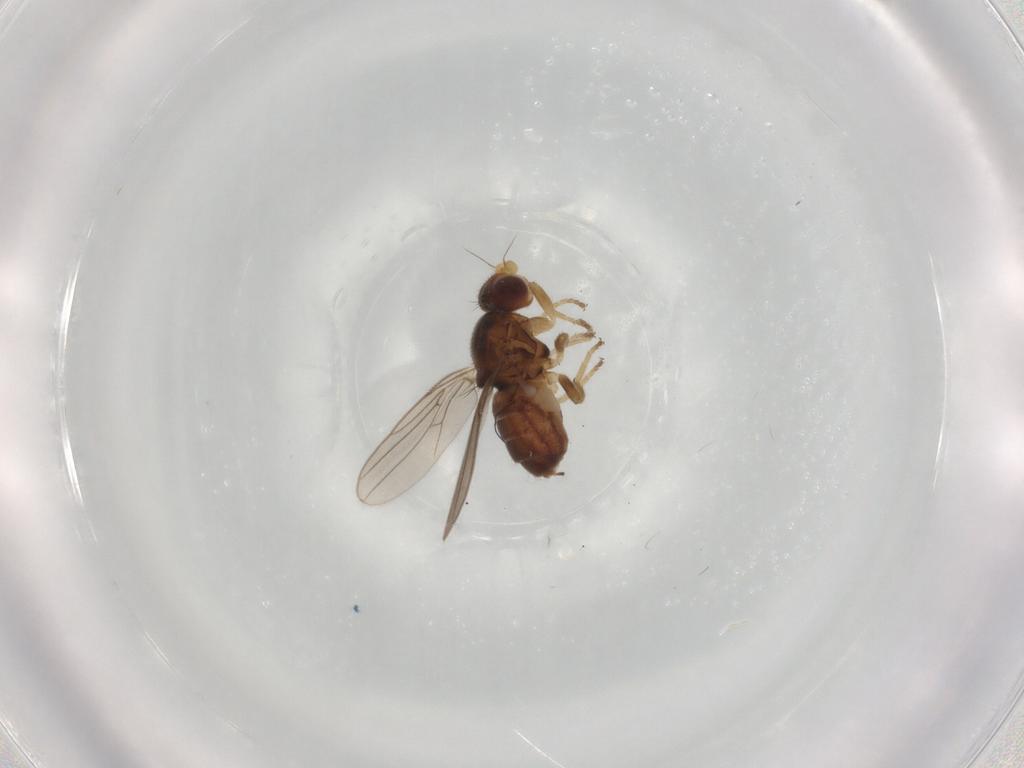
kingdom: Animalia
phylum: Arthropoda
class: Insecta
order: Diptera
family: Chloropidae
